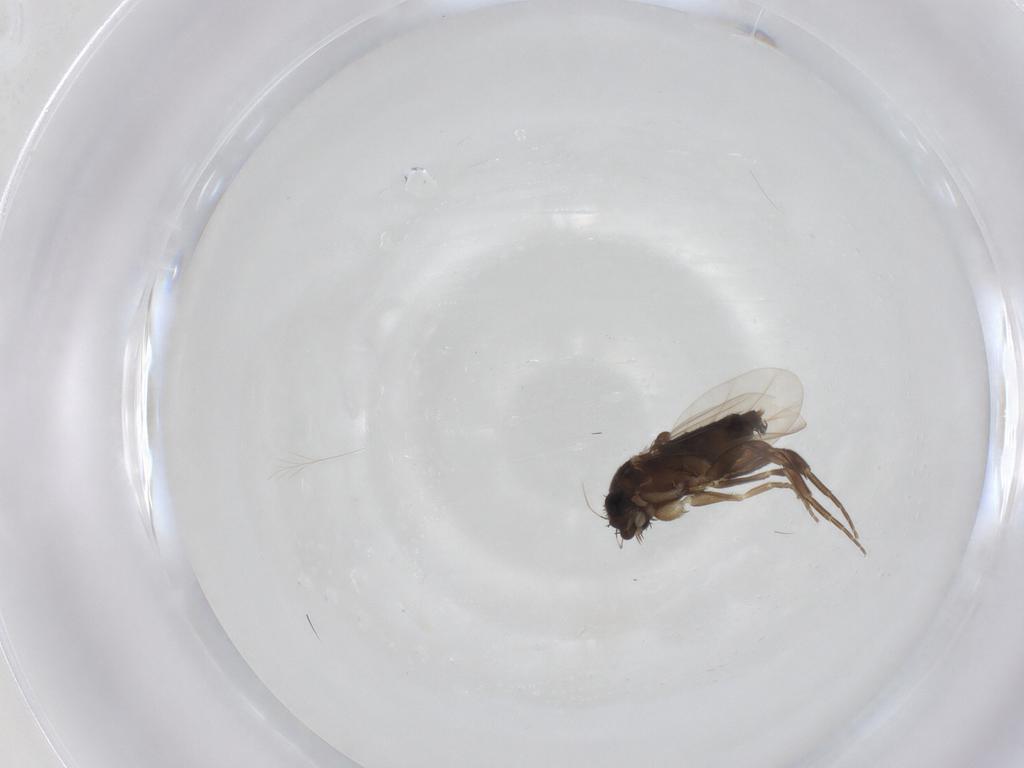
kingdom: Animalia
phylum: Arthropoda
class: Insecta
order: Diptera
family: Phoridae
